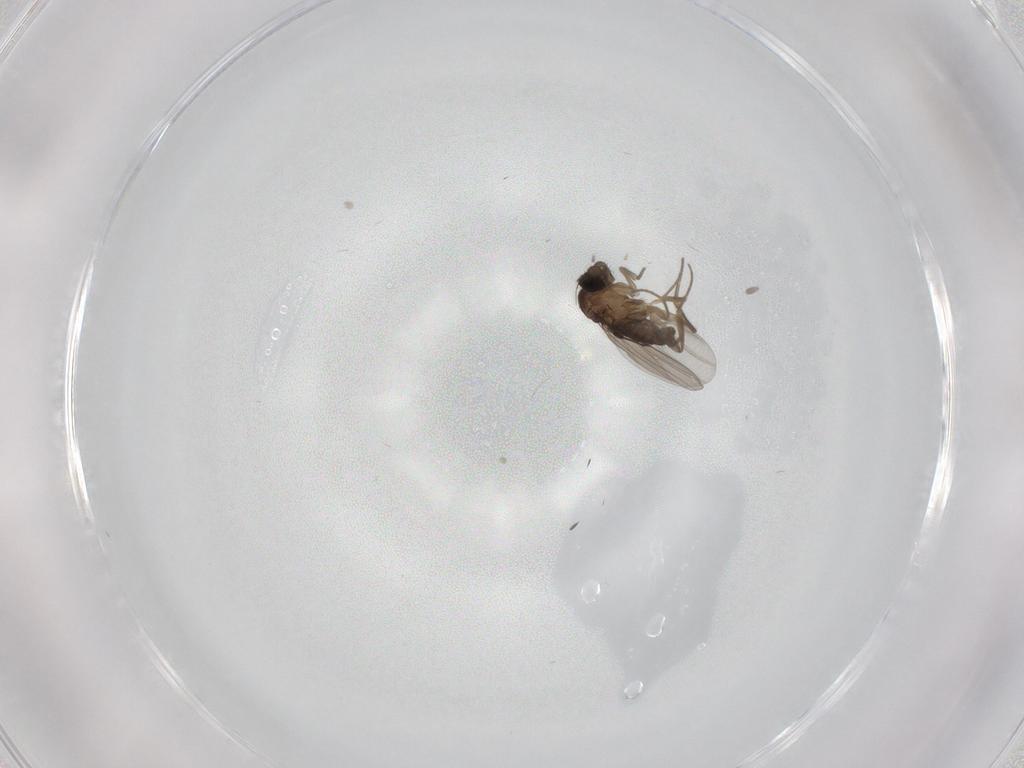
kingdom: Animalia
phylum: Arthropoda
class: Insecta
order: Diptera
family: Phoridae
